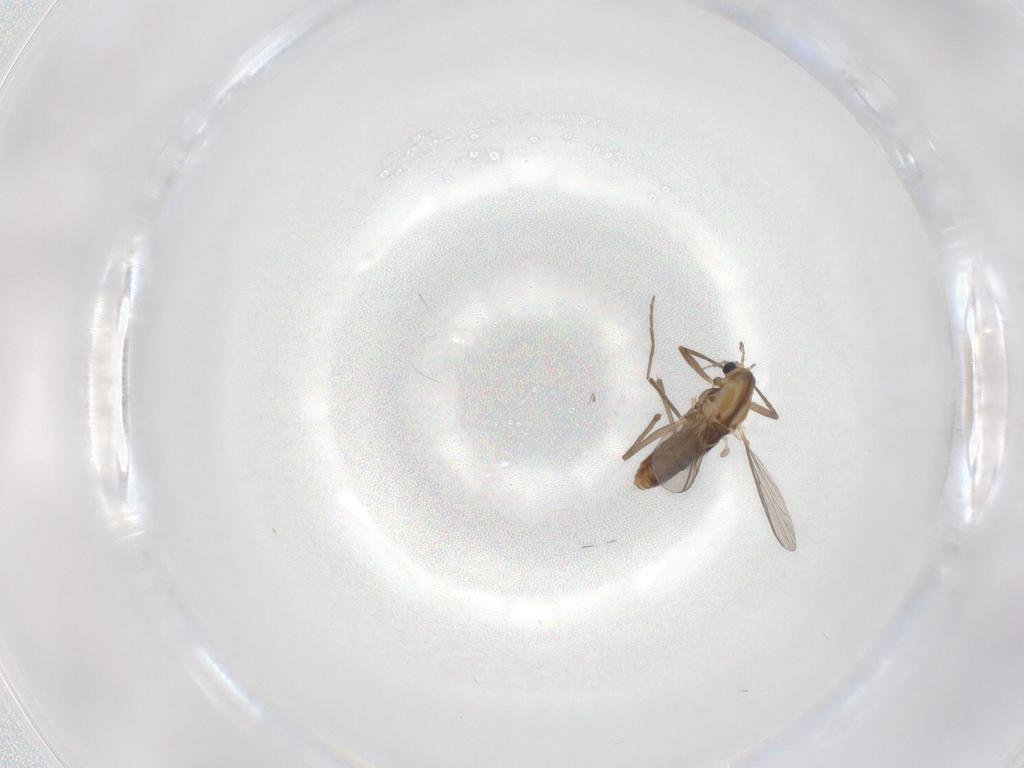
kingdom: Animalia
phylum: Arthropoda
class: Insecta
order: Diptera
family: Chironomidae
